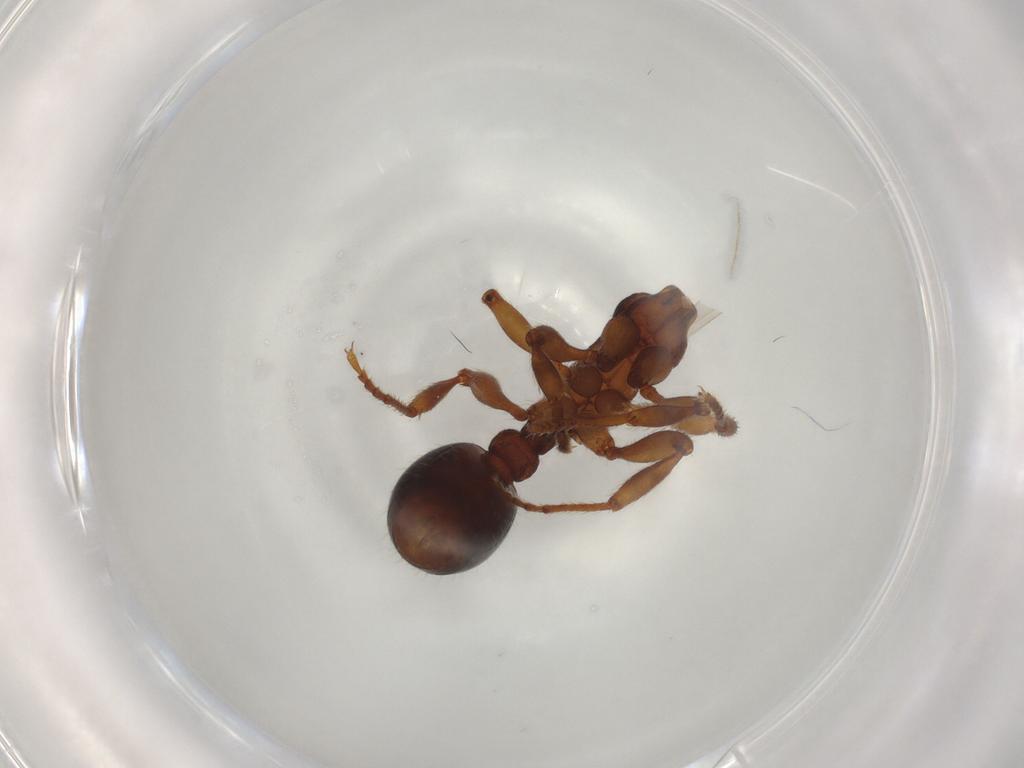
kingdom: Animalia
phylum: Arthropoda
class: Insecta
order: Hymenoptera
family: Formicidae
